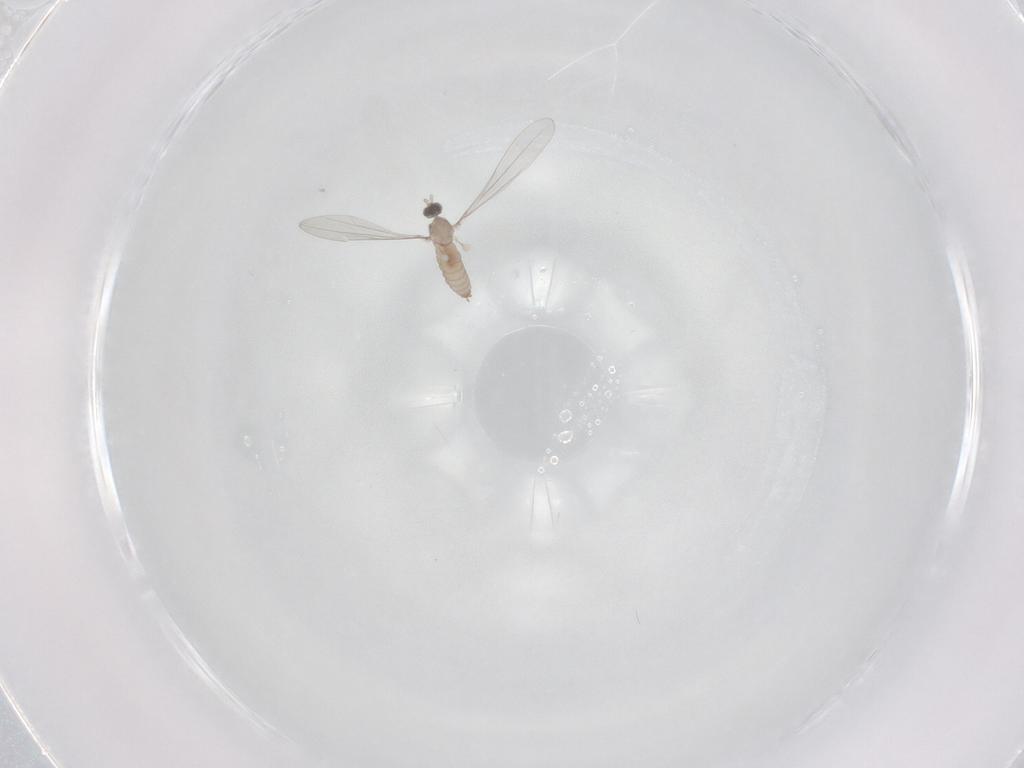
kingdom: Animalia
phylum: Arthropoda
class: Insecta
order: Diptera
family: Cecidomyiidae
